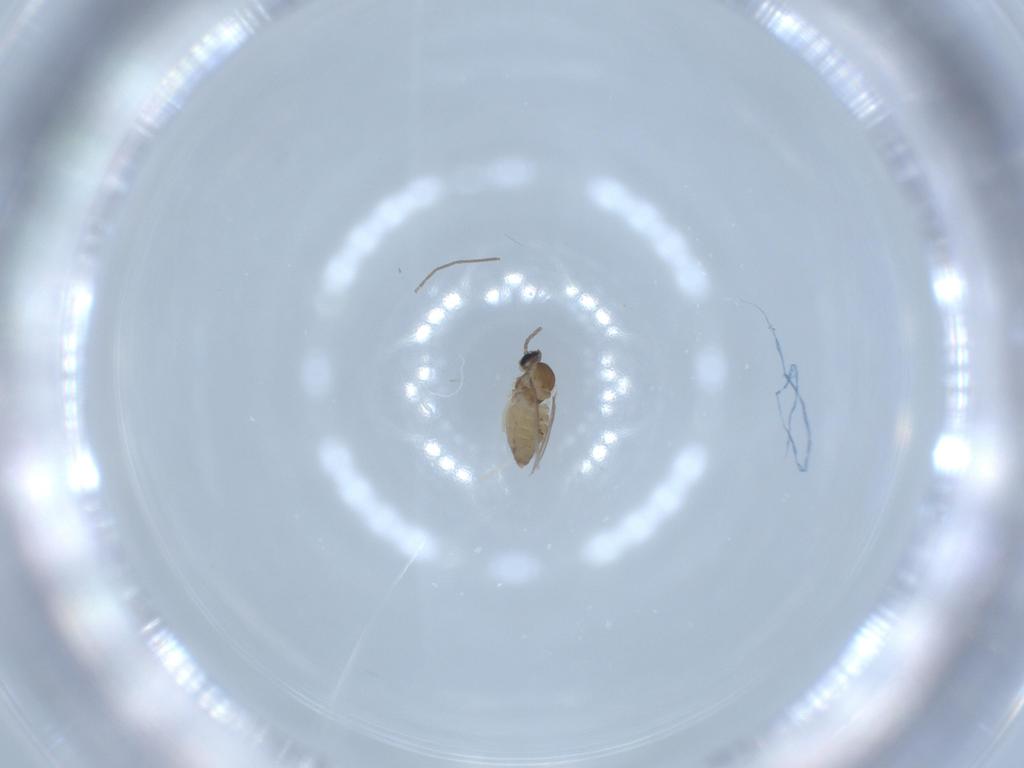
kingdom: Animalia
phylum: Arthropoda
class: Insecta
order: Diptera
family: Cecidomyiidae
